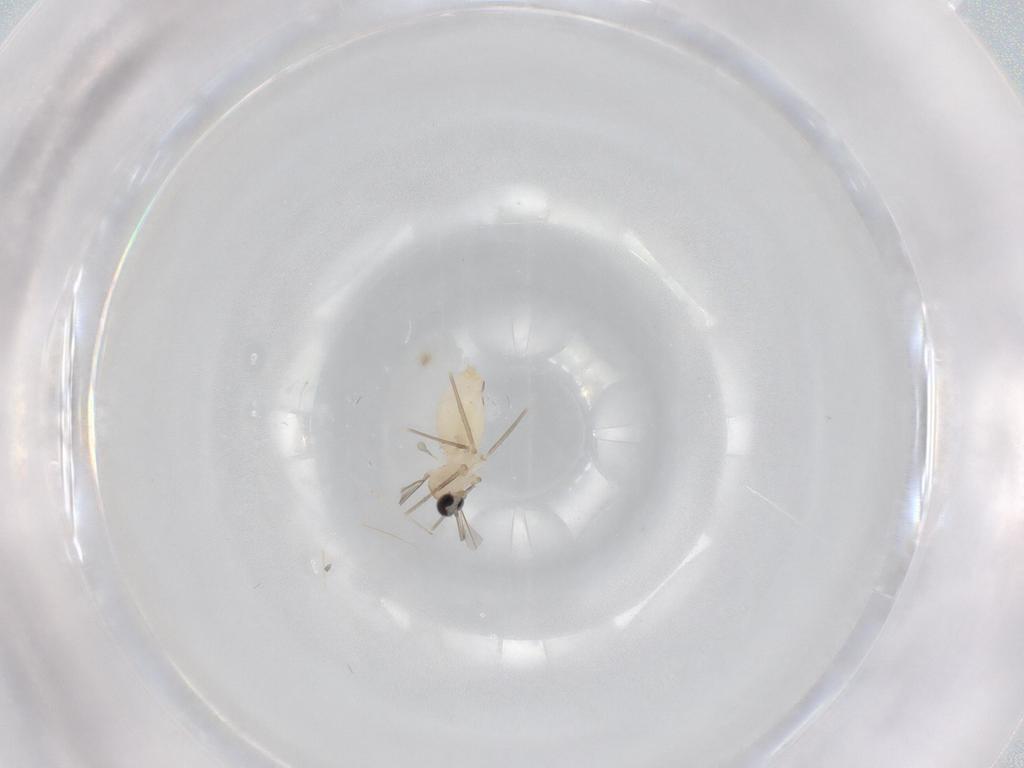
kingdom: Animalia
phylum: Arthropoda
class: Insecta
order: Diptera
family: Cecidomyiidae
